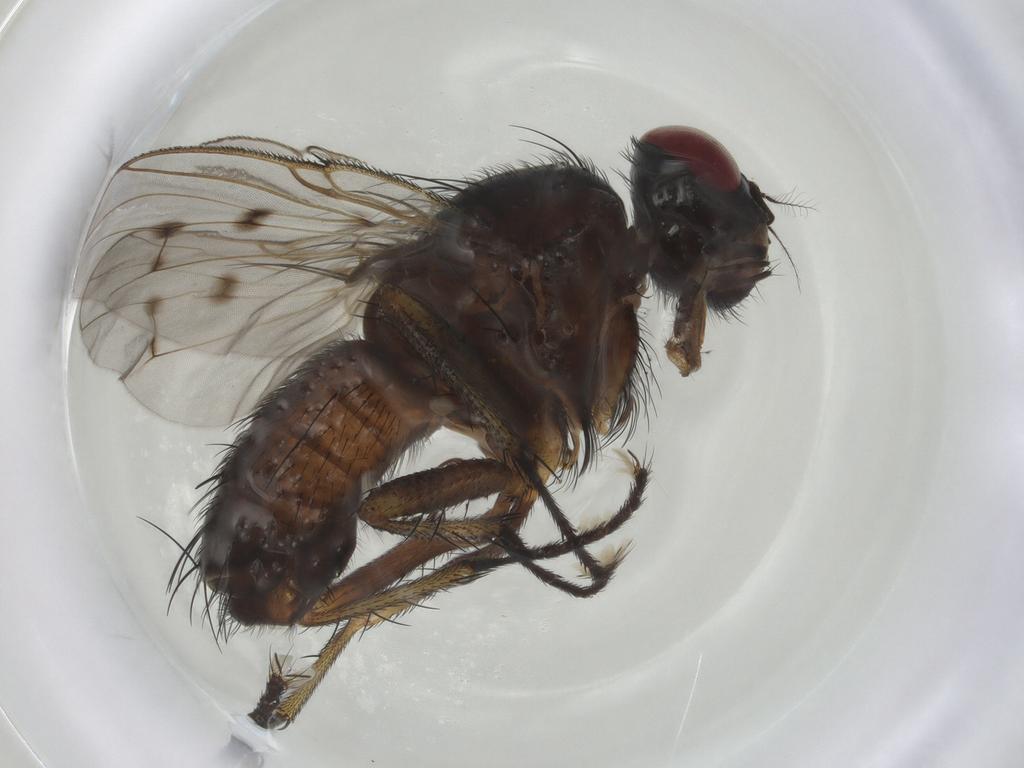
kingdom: Animalia
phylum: Arthropoda
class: Insecta
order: Diptera
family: Muscidae
